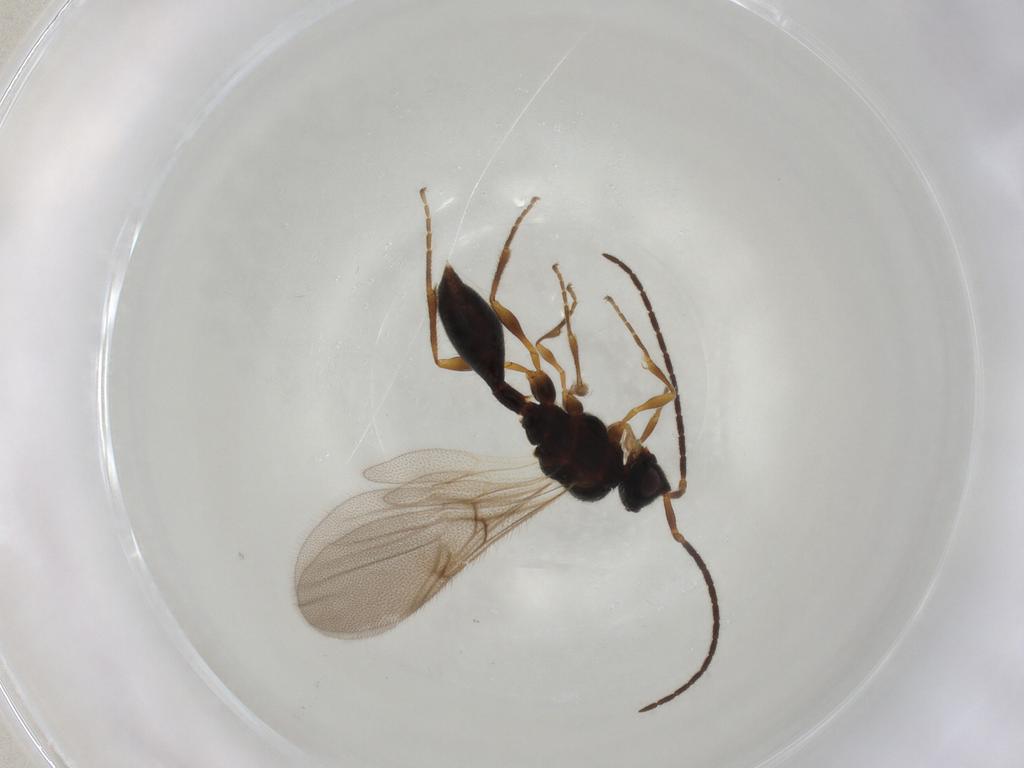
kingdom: Animalia
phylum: Arthropoda
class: Insecta
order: Hymenoptera
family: Diapriidae
